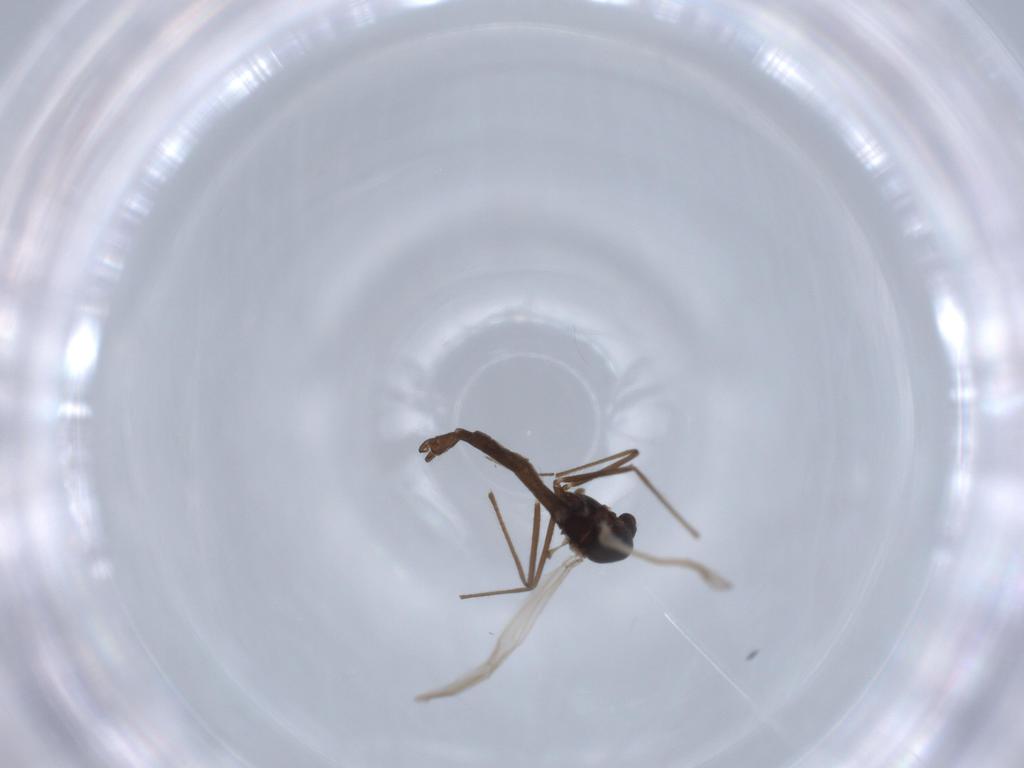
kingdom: Animalia
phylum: Arthropoda
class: Insecta
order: Diptera
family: Chironomidae
